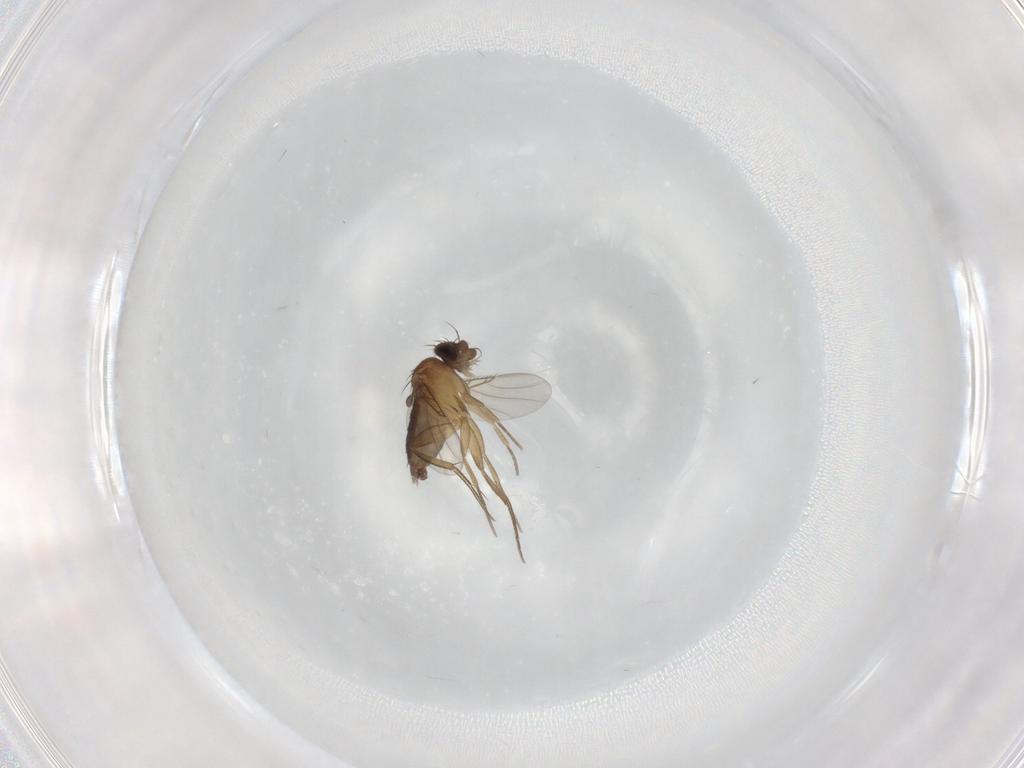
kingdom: Animalia
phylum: Arthropoda
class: Insecta
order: Diptera
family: Phoridae
